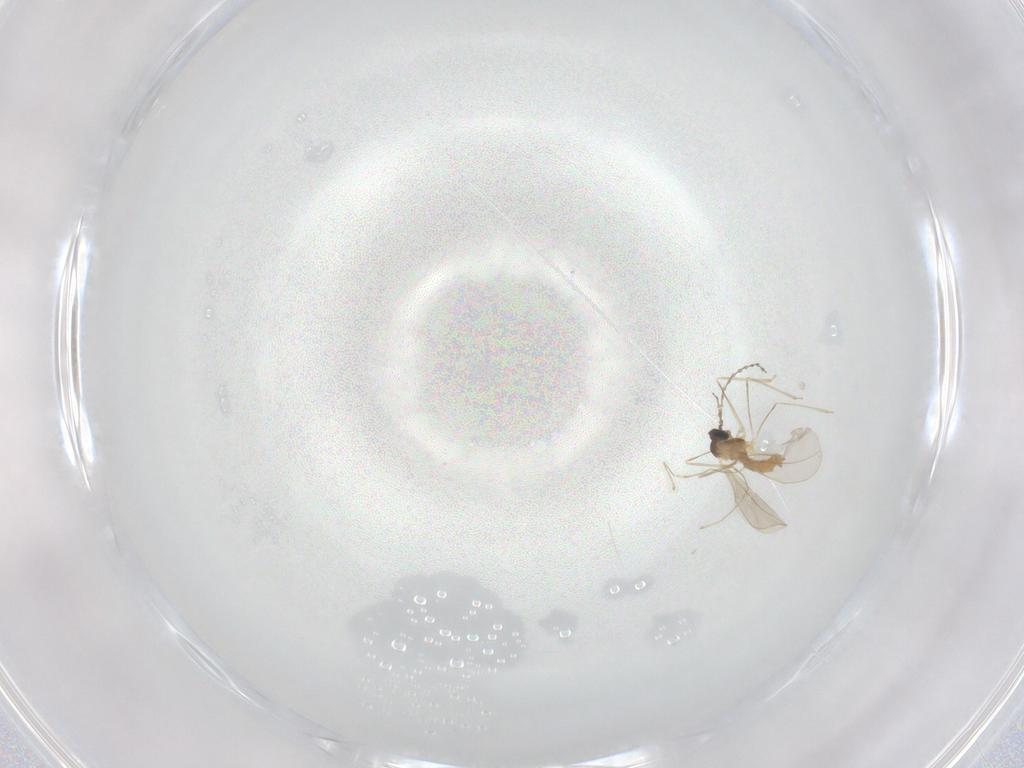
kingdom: Animalia
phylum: Arthropoda
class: Insecta
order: Diptera
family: Cecidomyiidae
